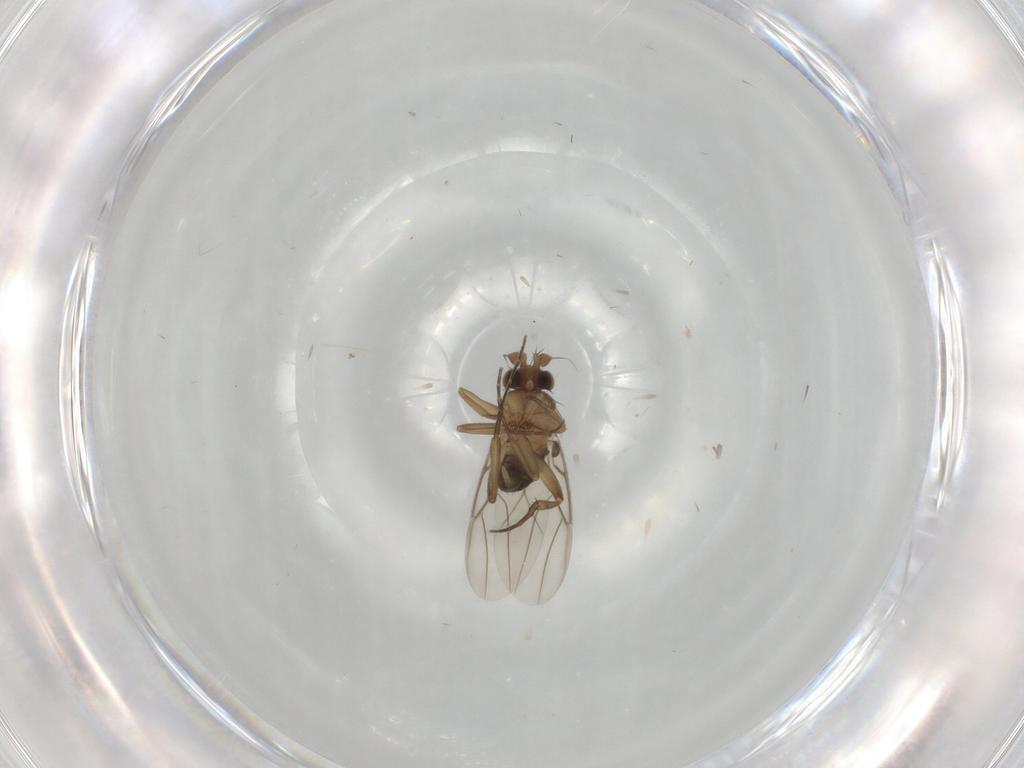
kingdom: Animalia
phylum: Arthropoda
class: Insecta
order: Diptera
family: Phoridae
